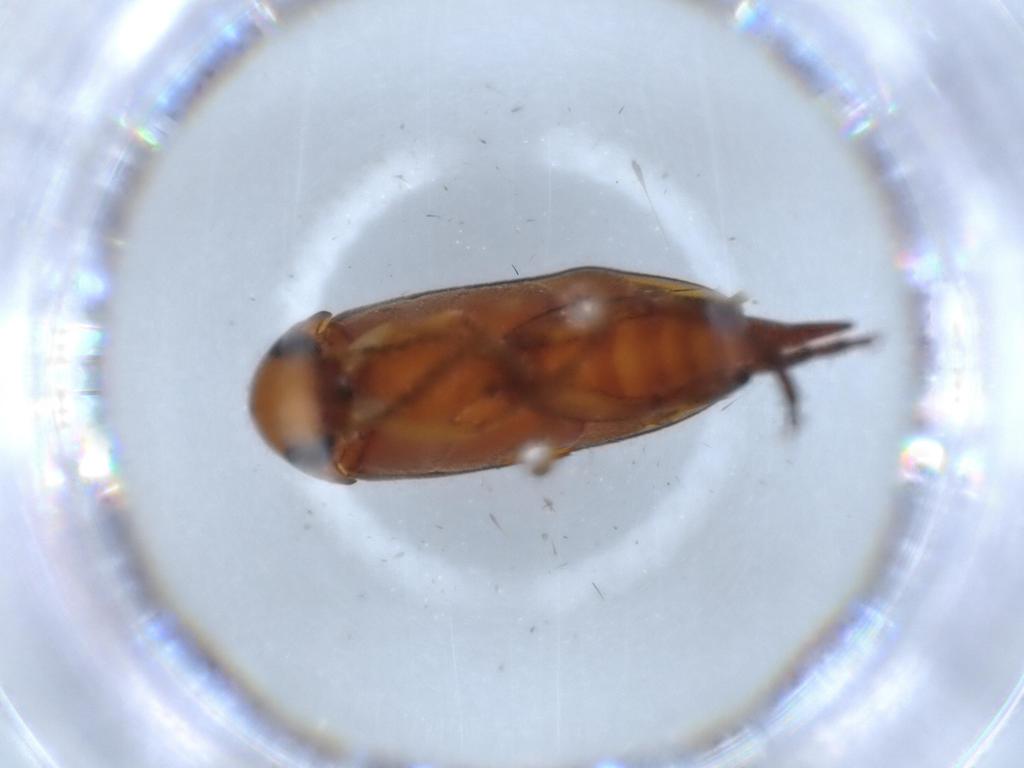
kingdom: Animalia
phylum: Arthropoda
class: Insecta
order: Coleoptera
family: Mordellidae
